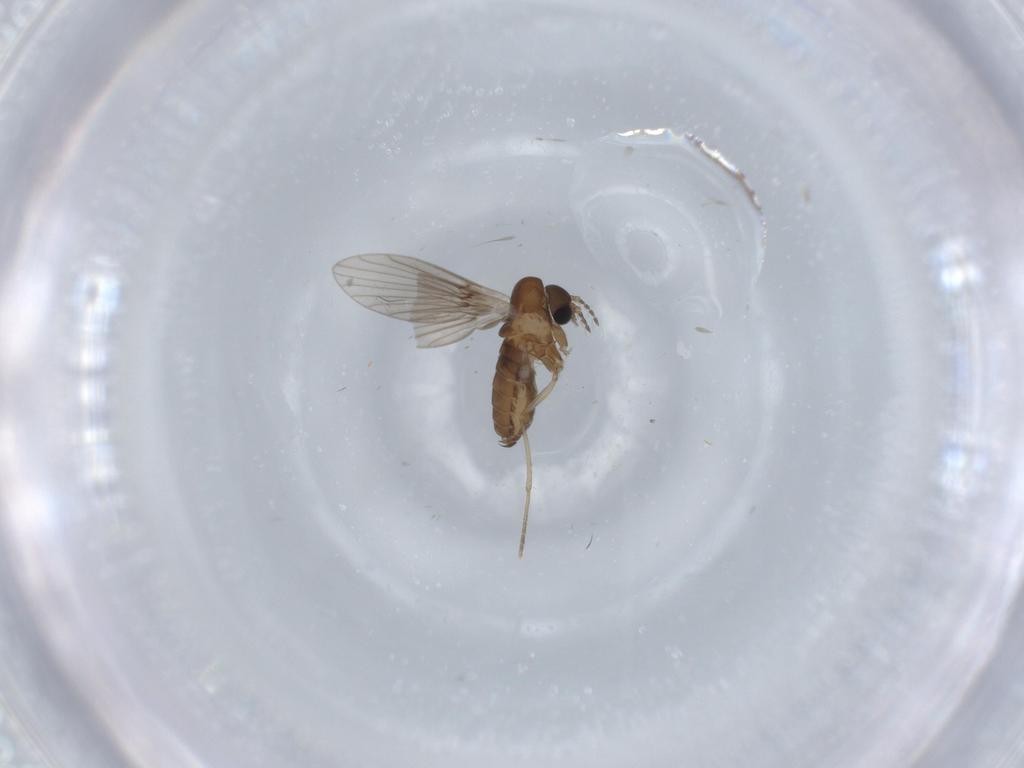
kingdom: Animalia
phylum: Arthropoda
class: Insecta
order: Diptera
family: Psychodidae
